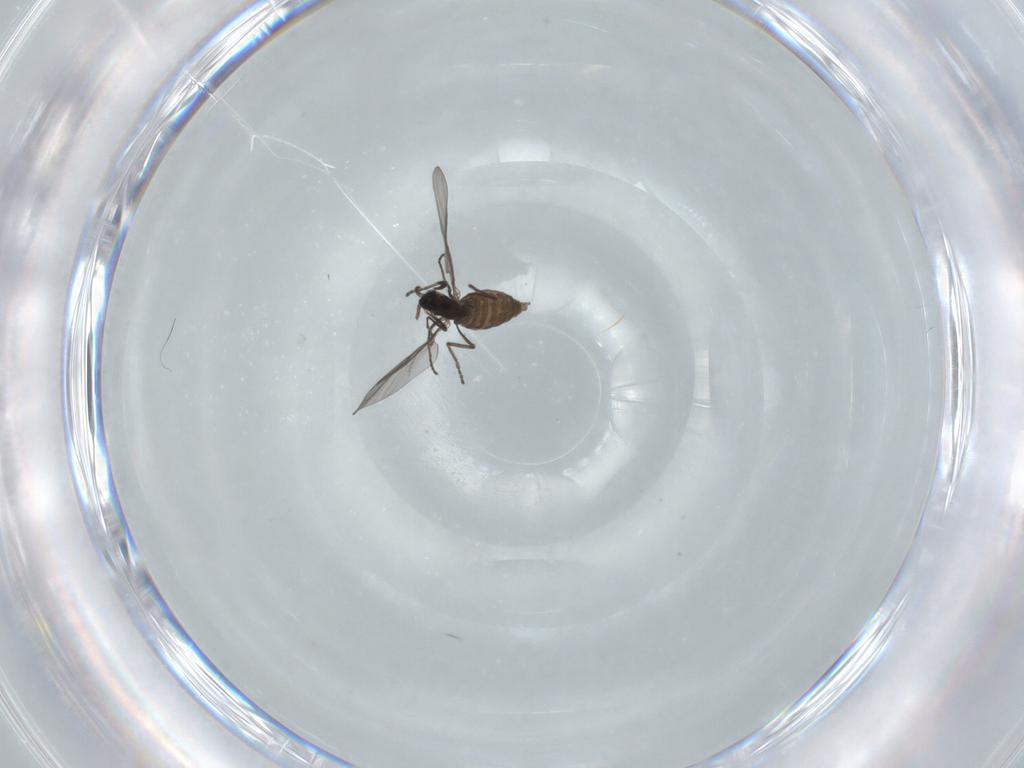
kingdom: Animalia
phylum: Arthropoda
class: Insecta
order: Diptera
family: Cecidomyiidae
